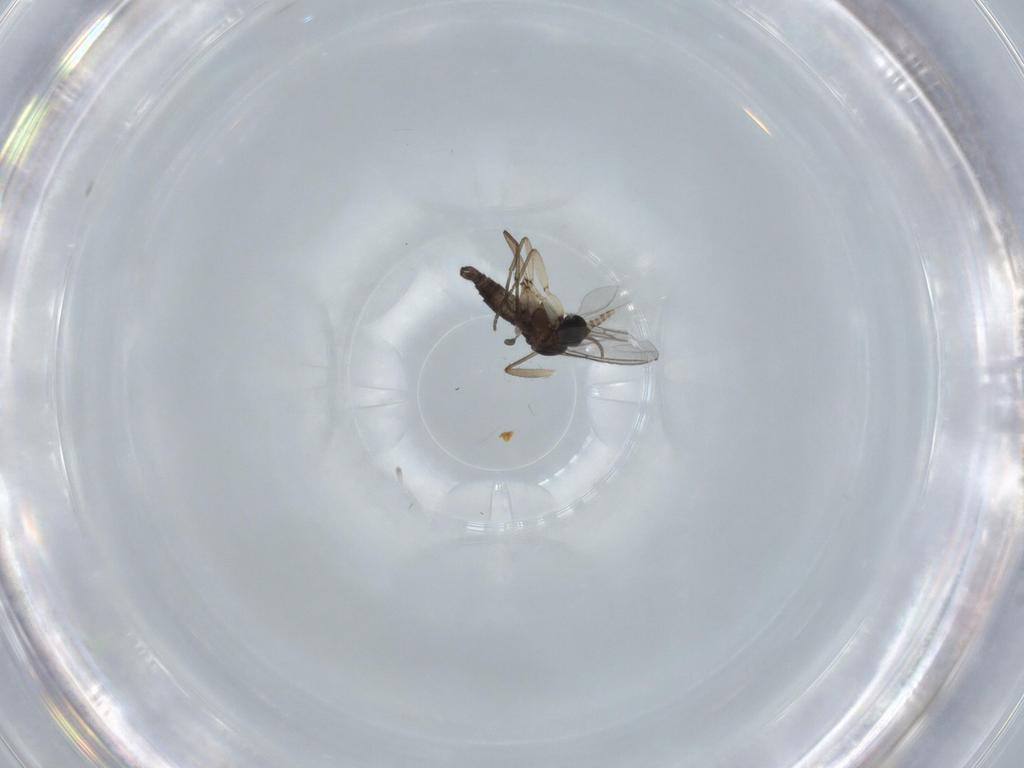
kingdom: Animalia
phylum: Arthropoda
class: Insecta
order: Diptera
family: Sciaridae
